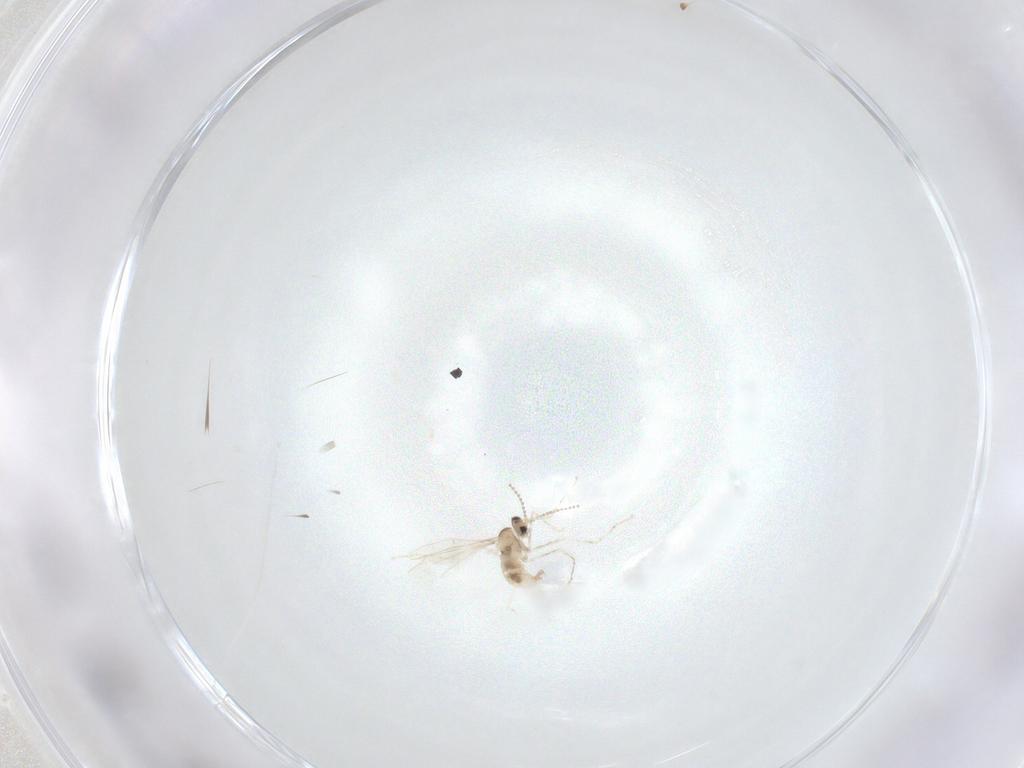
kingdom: Animalia
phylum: Arthropoda
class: Insecta
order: Diptera
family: Cecidomyiidae
